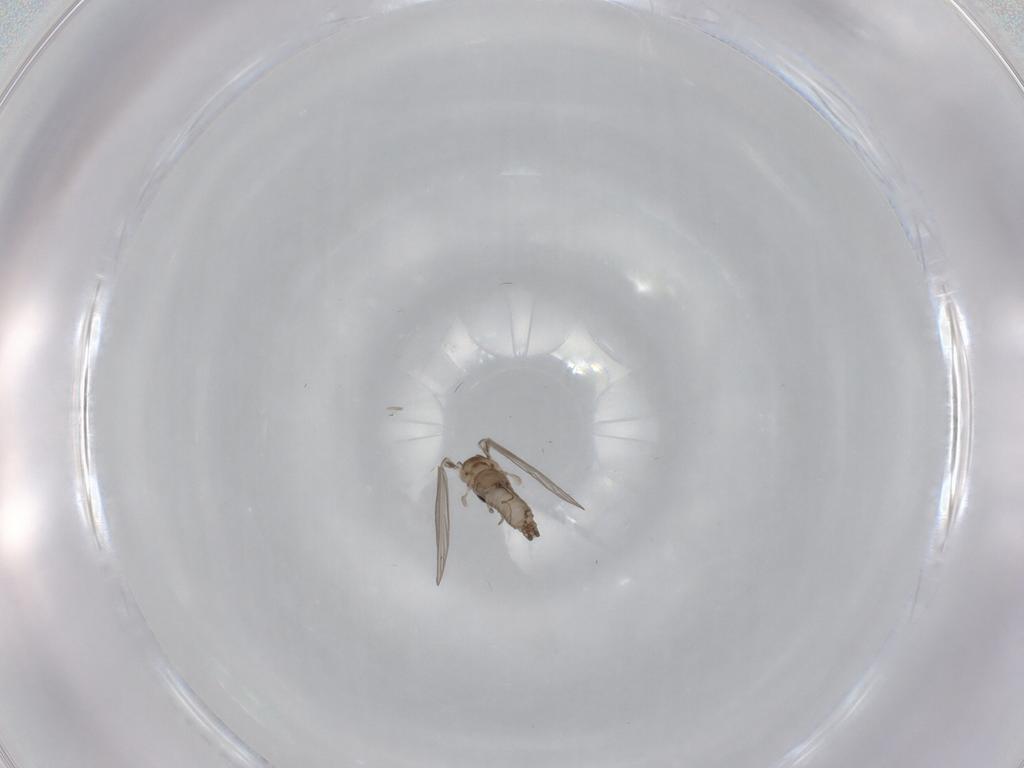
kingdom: Animalia
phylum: Arthropoda
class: Insecta
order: Diptera
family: Psychodidae
